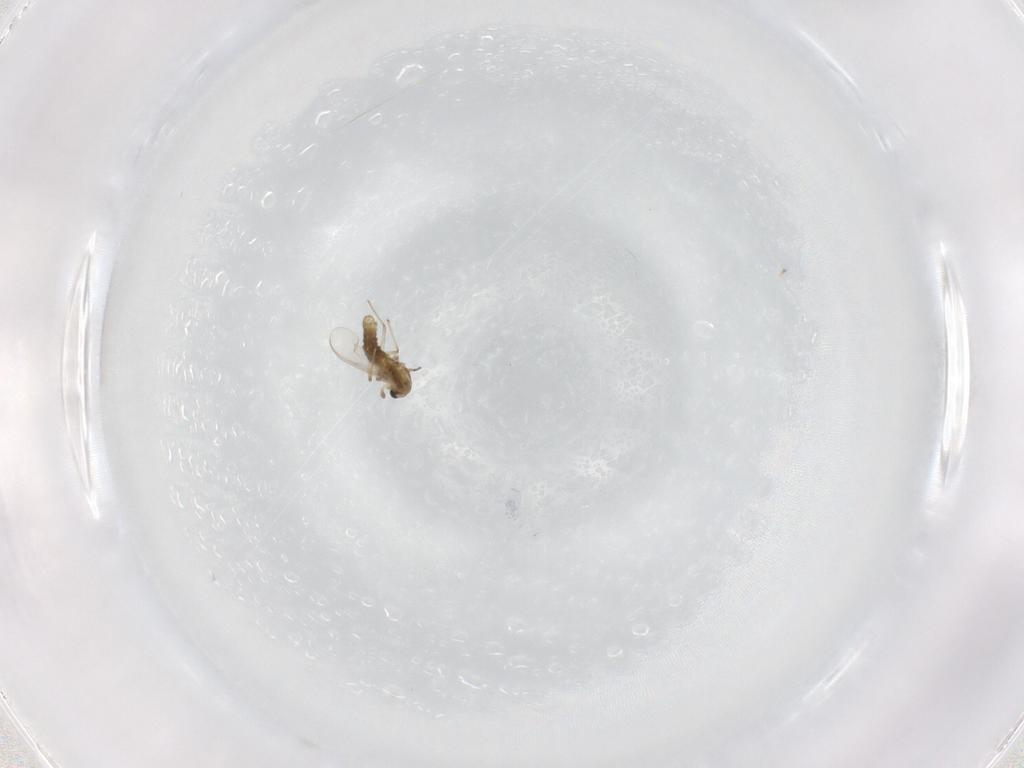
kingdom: Animalia
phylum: Arthropoda
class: Insecta
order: Diptera
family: Chironomidae
